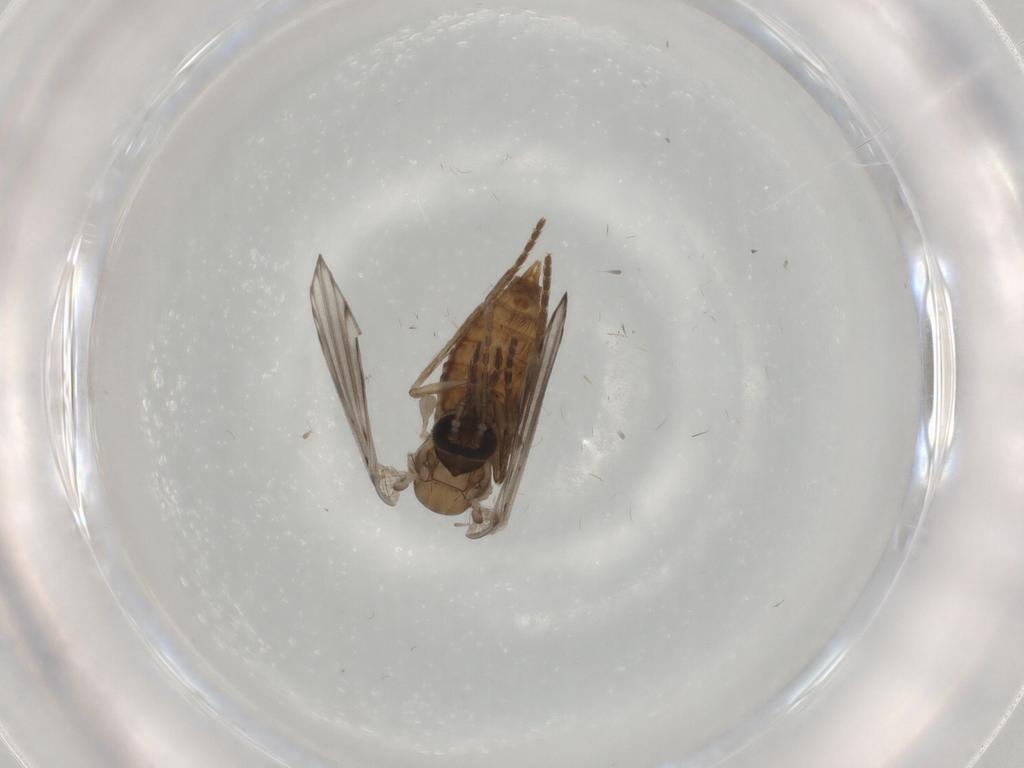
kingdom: Animalia
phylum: Arthropoda
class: Insecta
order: Diptera
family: Psychodidae
